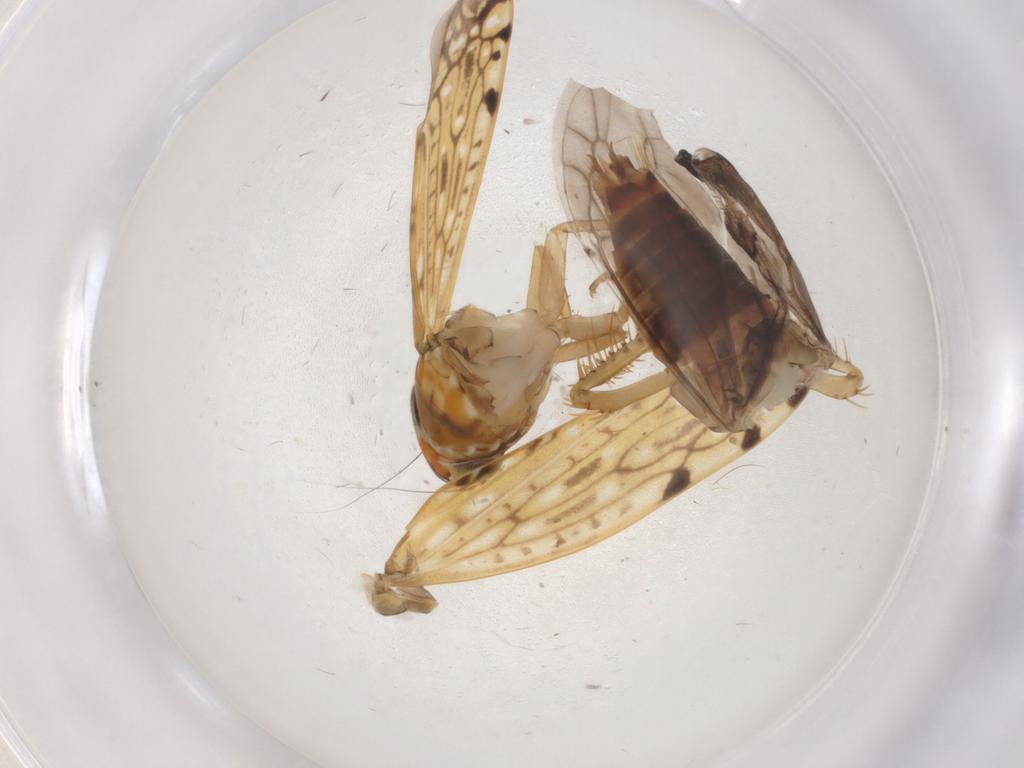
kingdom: Animalia
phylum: Arthropoda
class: Insecta
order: Hemiptera
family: Cicadellidae
